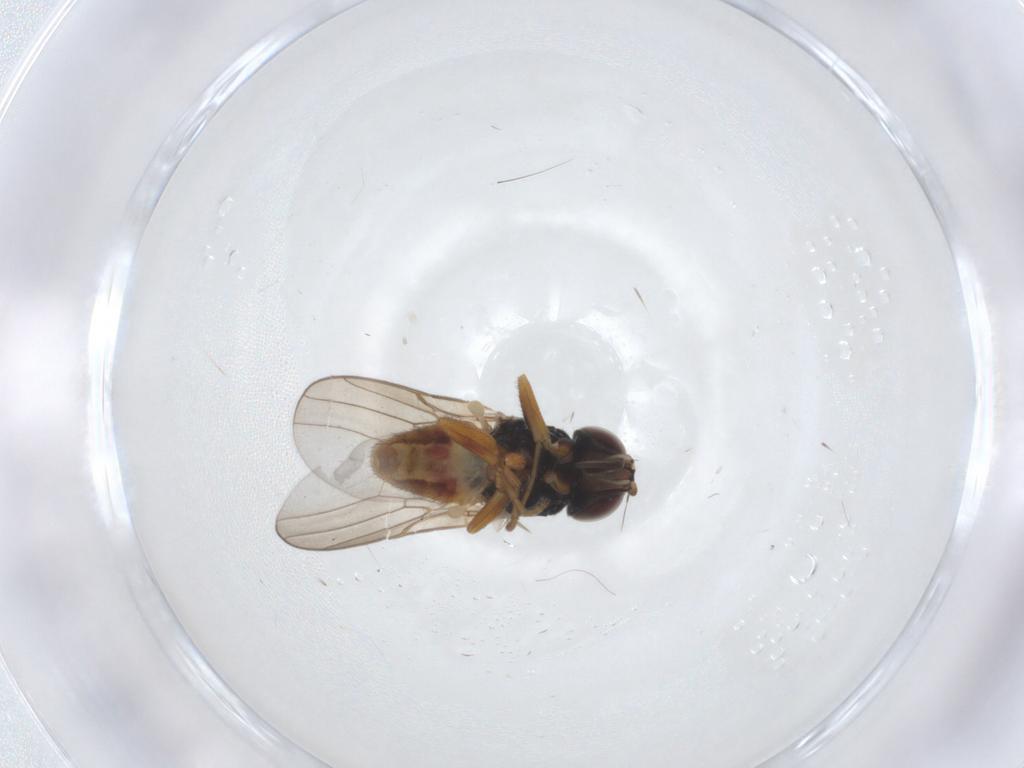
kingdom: Animalia
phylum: Arthropoda
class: Insecta
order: Diptera
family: Chloropidae
